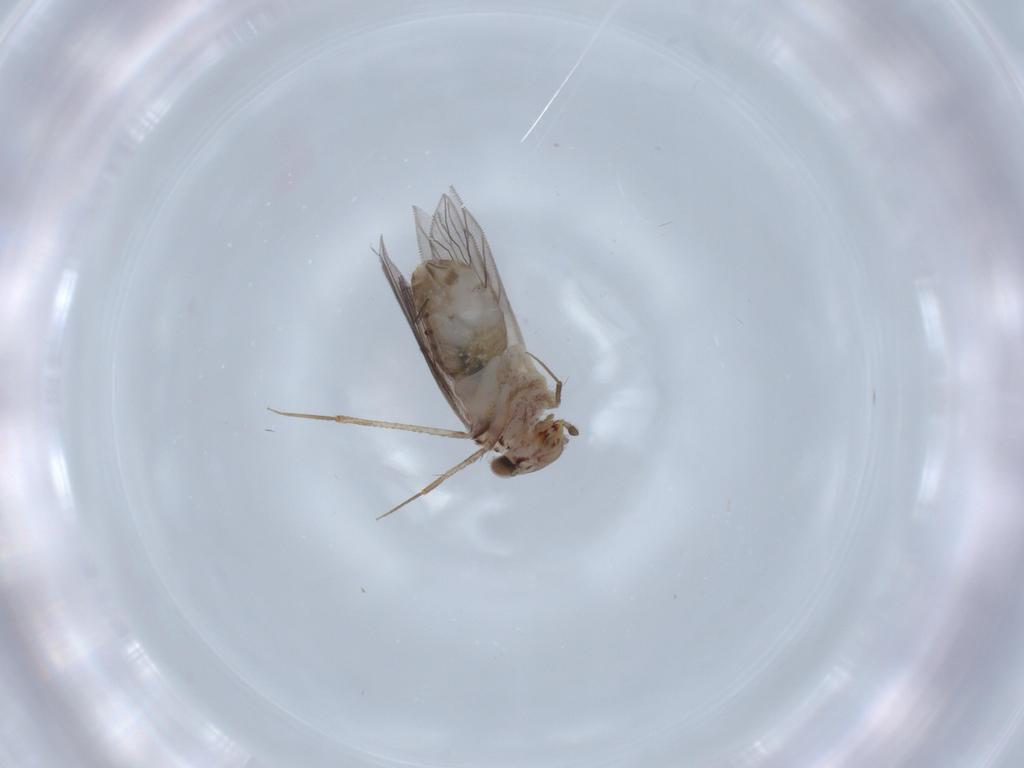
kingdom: Animalia
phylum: Arthropoda
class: Insecta
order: Psocodea
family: Lepidopsocidae
